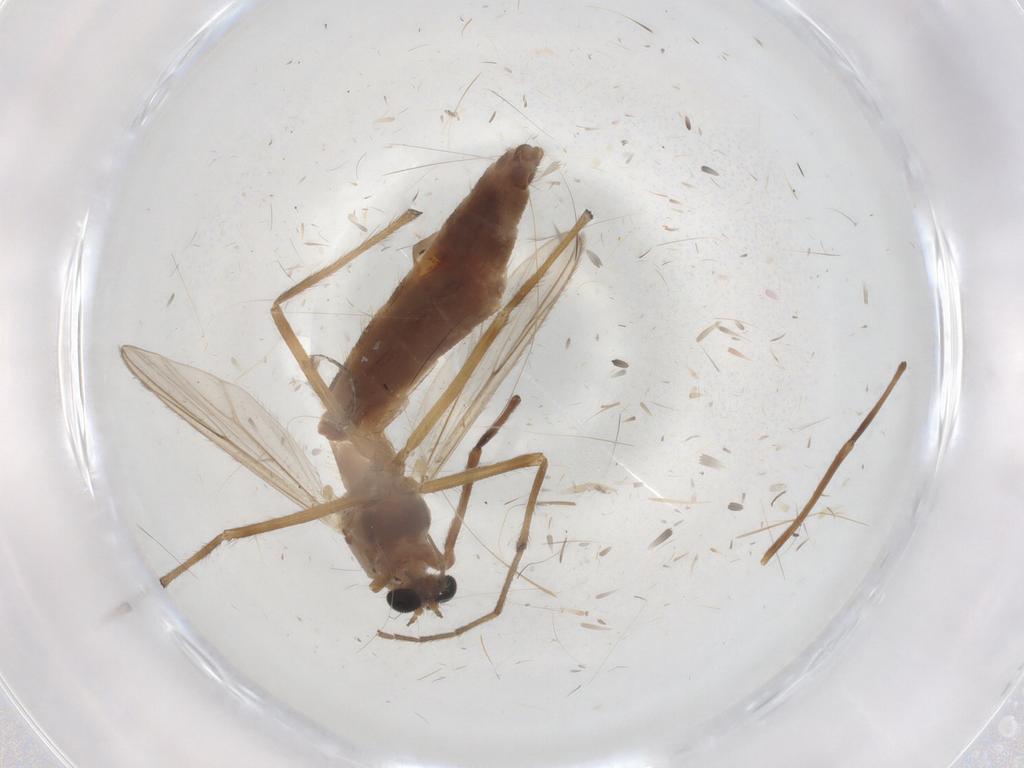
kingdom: Animalia
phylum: Arthropoda
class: Insecta
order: Diptera
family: Chironomidae
